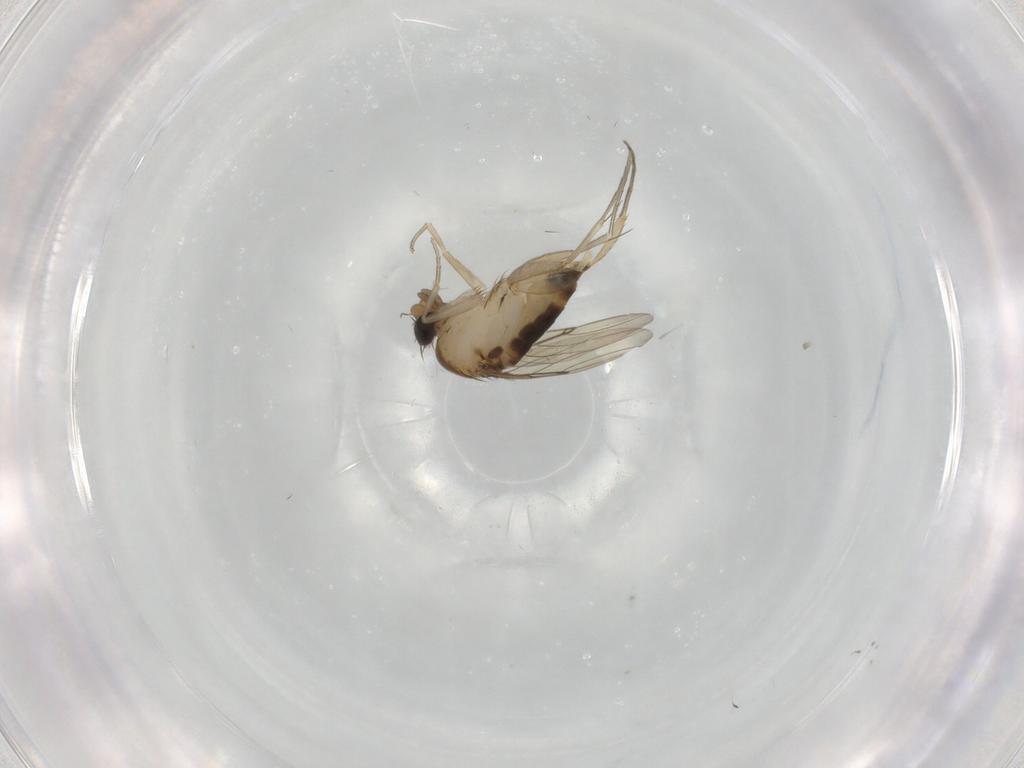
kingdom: Animalia
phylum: Arthropoda
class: Insecta
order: Diptera
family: Phoridae
